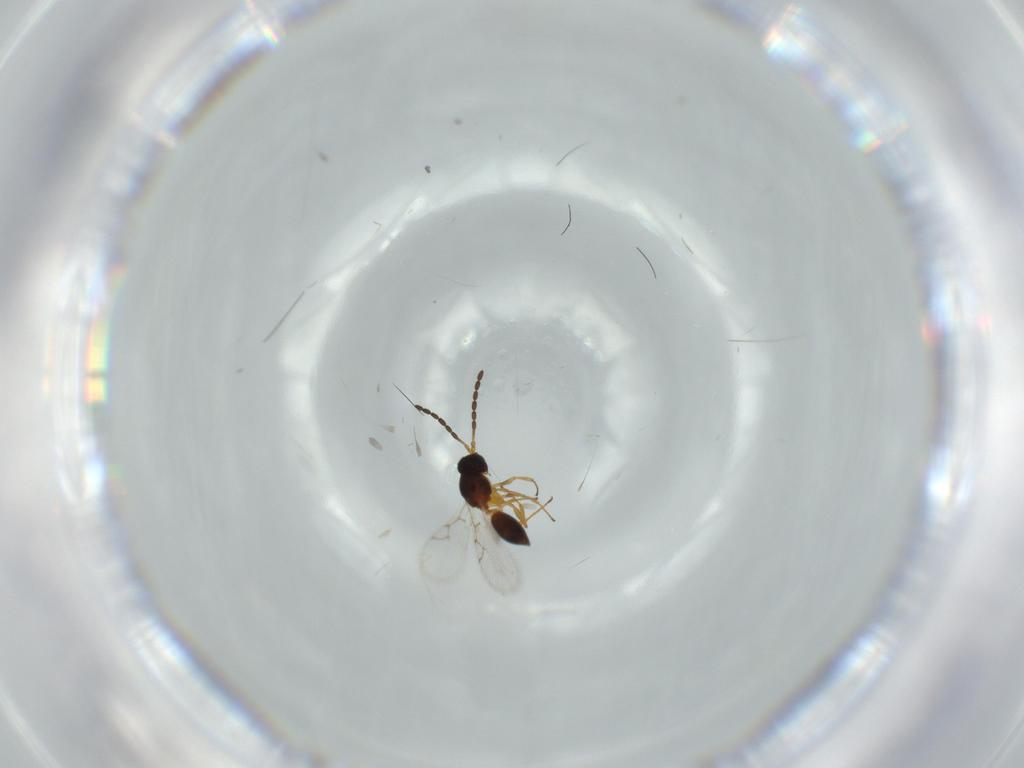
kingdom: Animalia
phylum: Arthropoda
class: Insecta
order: Hymenoptera
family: Figitidae
